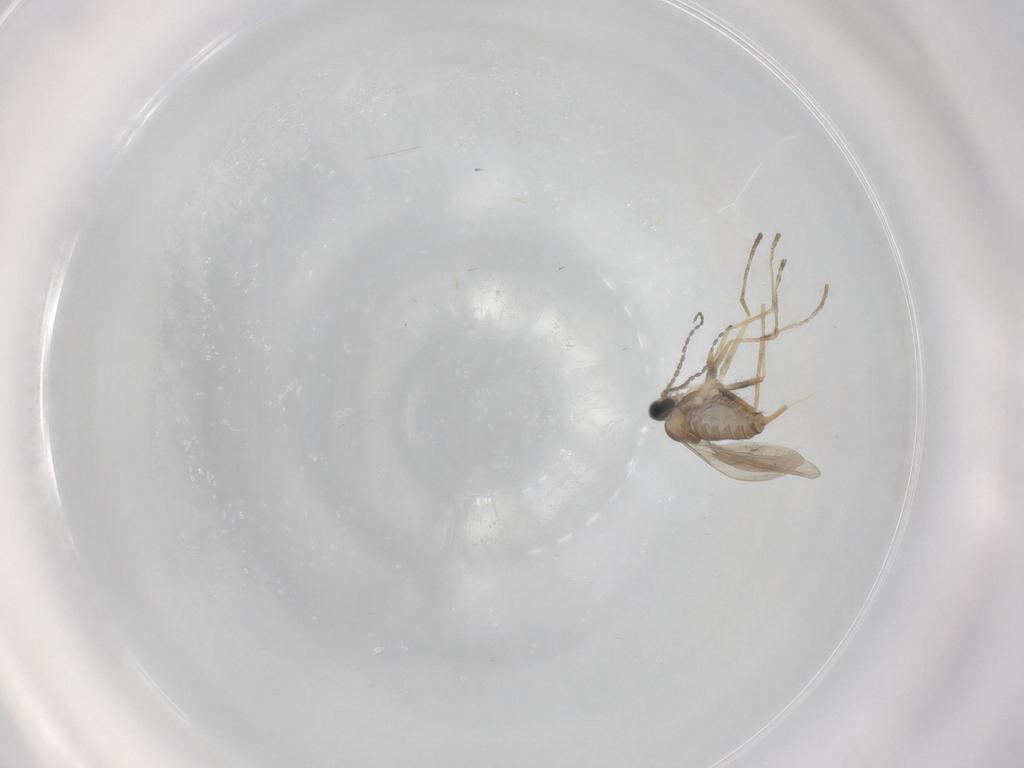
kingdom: Animalia
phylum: Arthropoda
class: Insecta
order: Diptera
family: Cecidomyiidae
